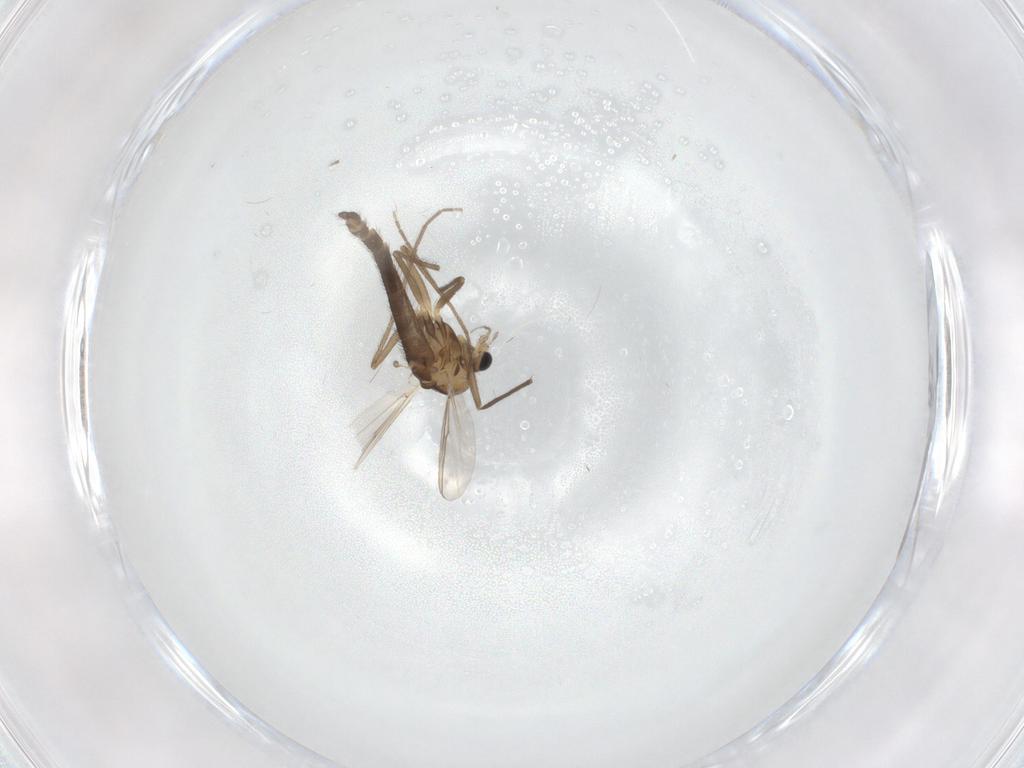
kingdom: Animalia
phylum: Arthropoda
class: Insecta
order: Diptera
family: Chironomidae
